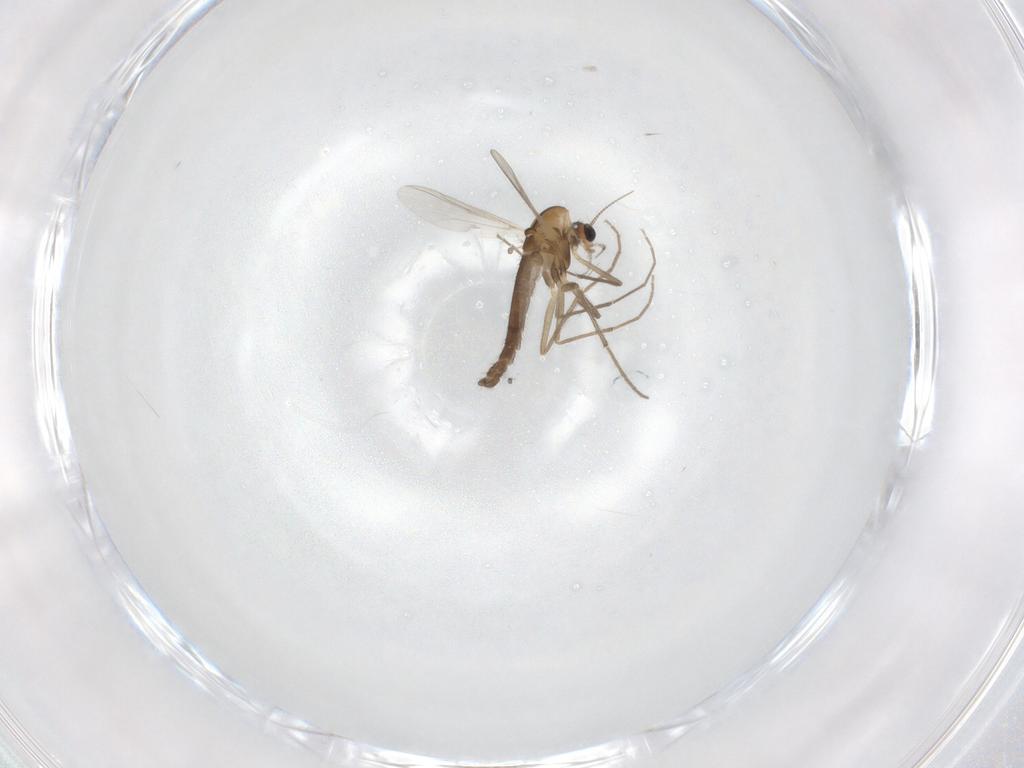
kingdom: Animalia
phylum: Arthropoda
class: Insecta
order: Diptera
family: Chironomidae
